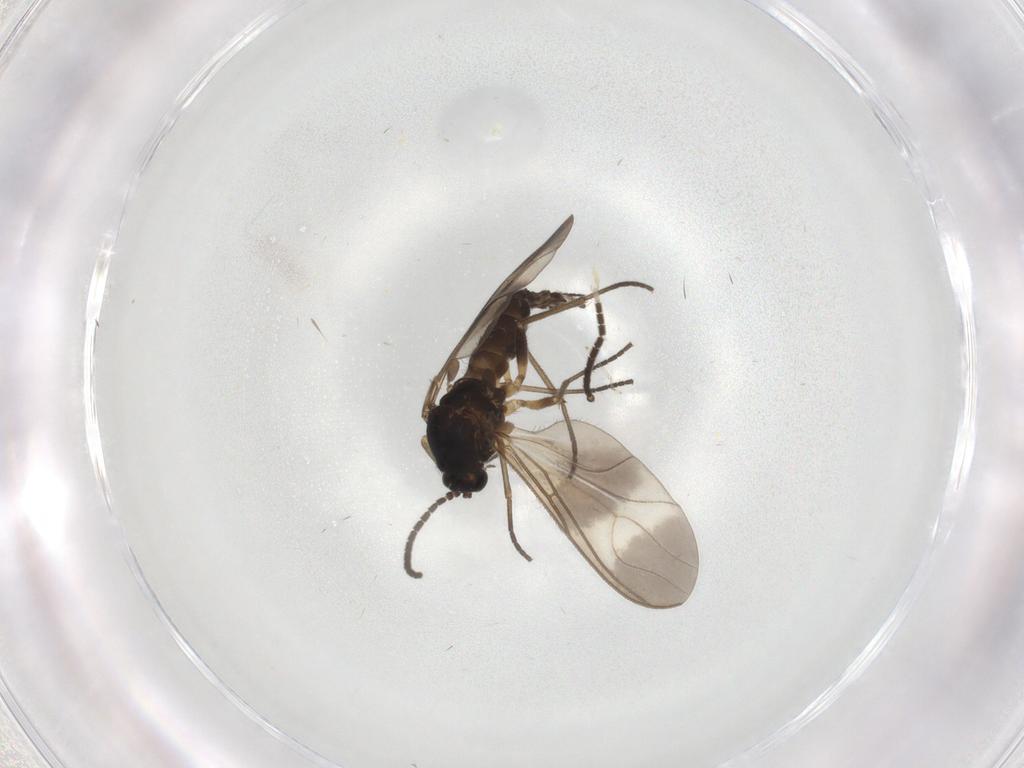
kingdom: Animalia
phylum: Arthropoda
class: Insecta
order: Diptera
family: Sciaridae
